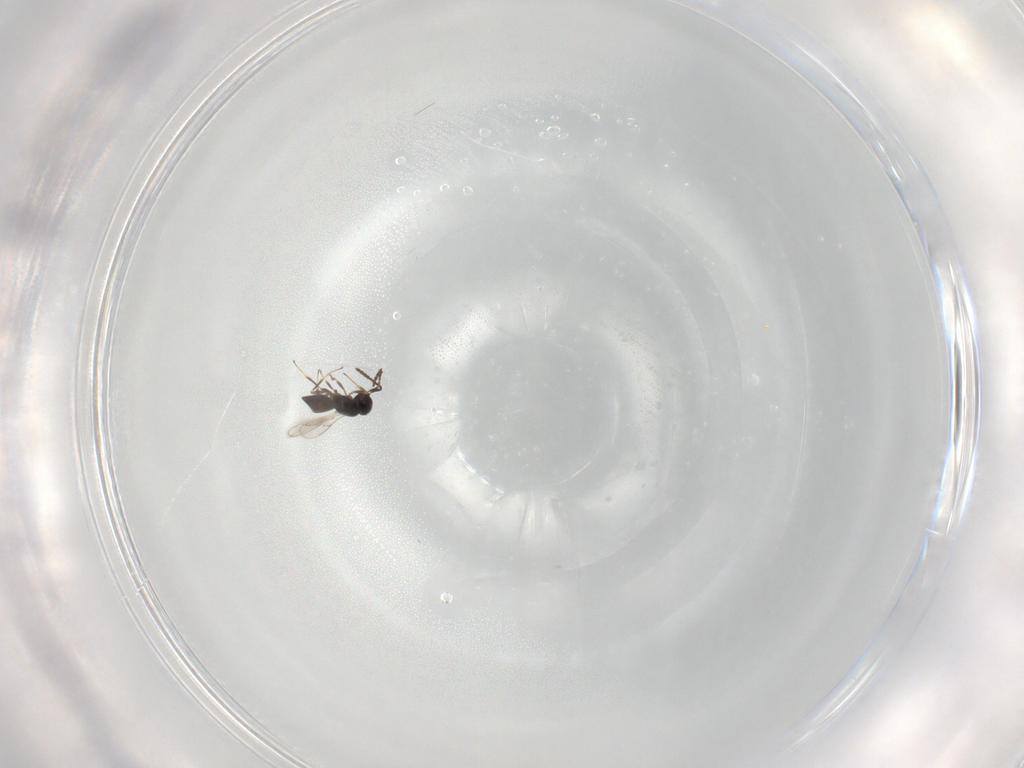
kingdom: Animalia
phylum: Arthropoda
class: Insecta
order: Hymenoptera
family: Scelionidae
